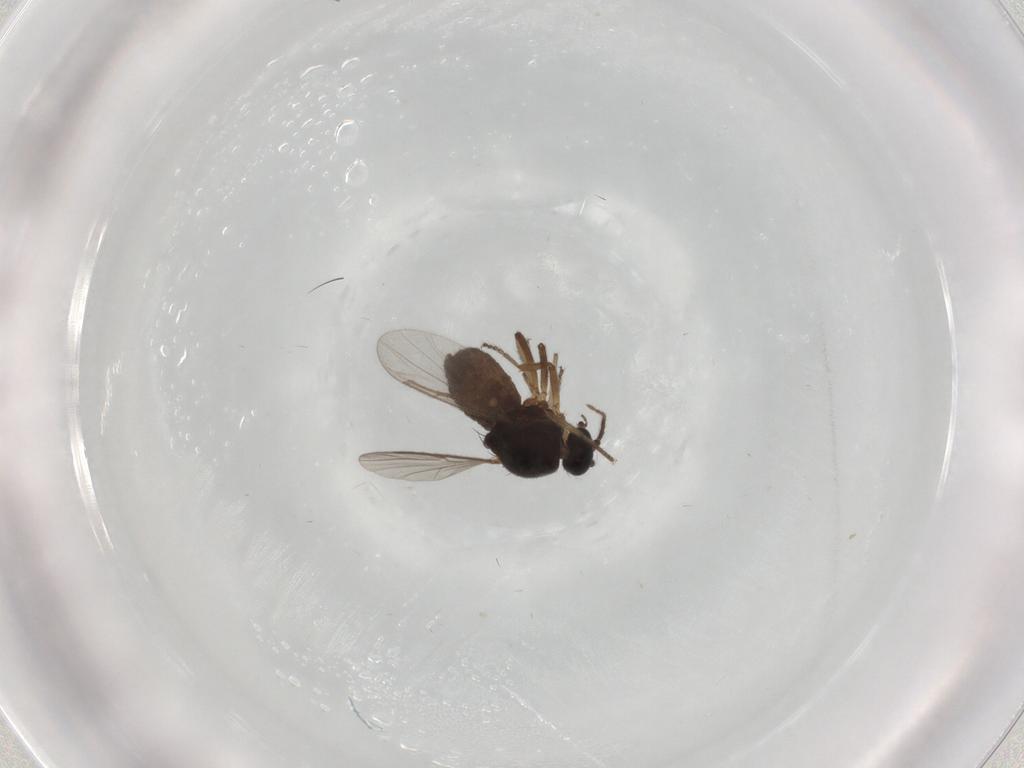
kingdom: Animalia
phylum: Arthropoda
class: Insecta
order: Diptera
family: Ceratopogonidae
